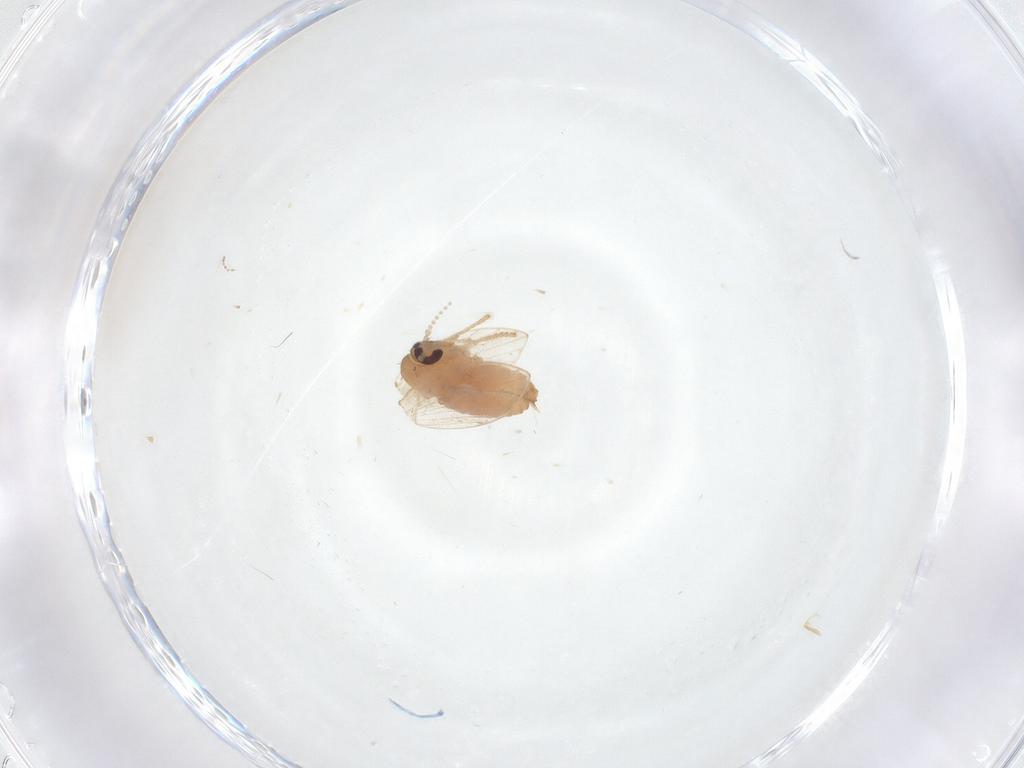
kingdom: Animalia
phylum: Arthropoda
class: Insecta
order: Diptera
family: Psychodidae
